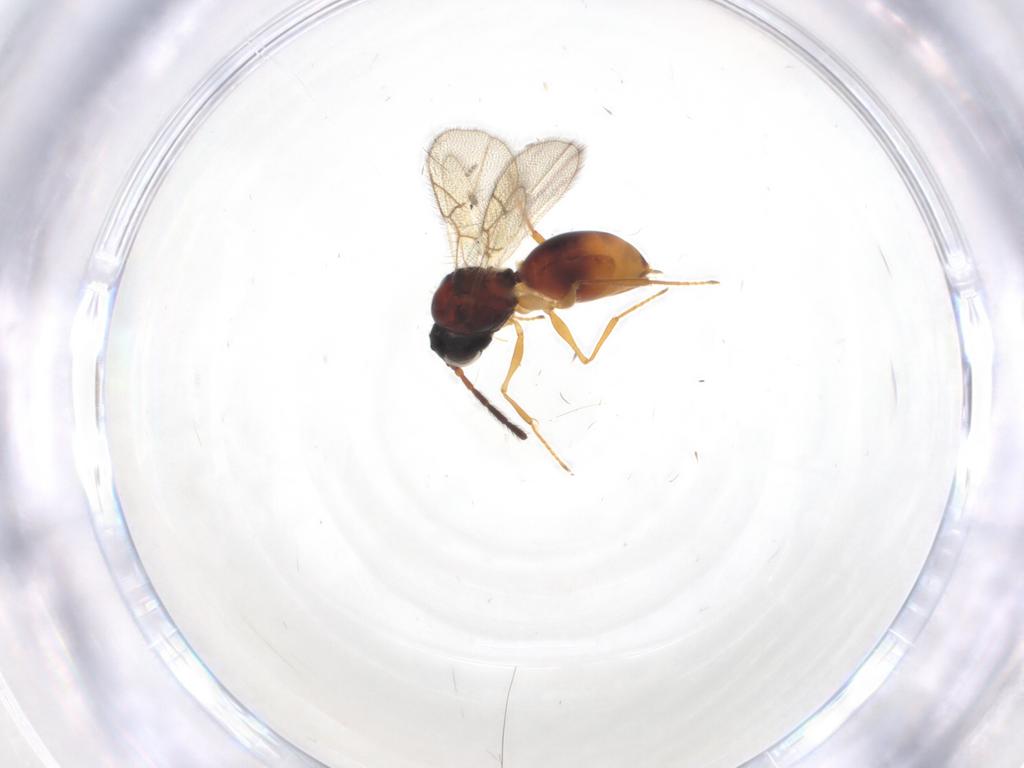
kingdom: Animalia
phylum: Arthropoda
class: Insecta
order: Hymenoptera
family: Figitidae
